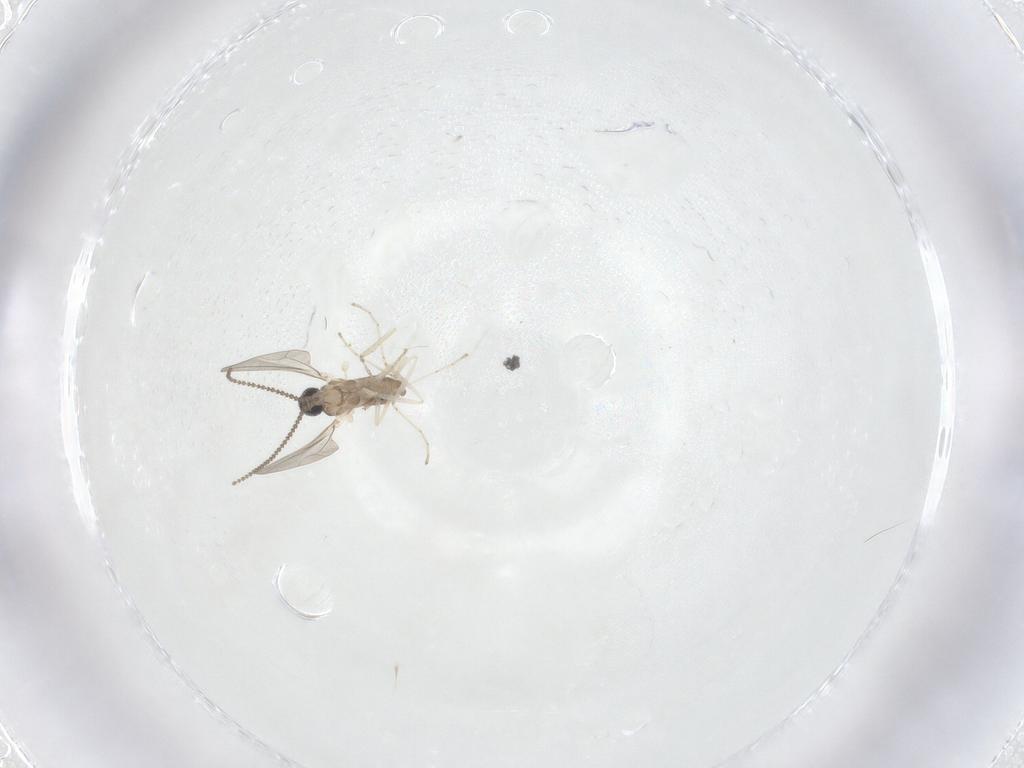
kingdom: Animalia
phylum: Arthropoda
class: Insecta
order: Diptera
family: Cecidomyiidae
